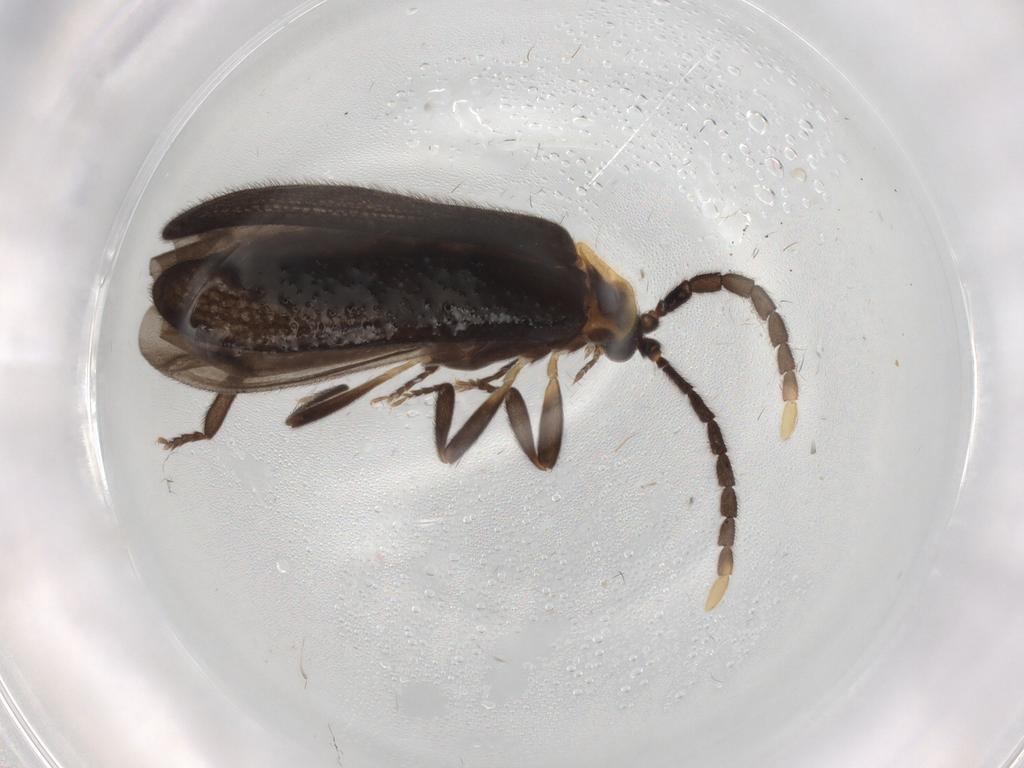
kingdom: Animalia
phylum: Arthropoda
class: Insecta
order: Coleoptera
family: Lycidae
